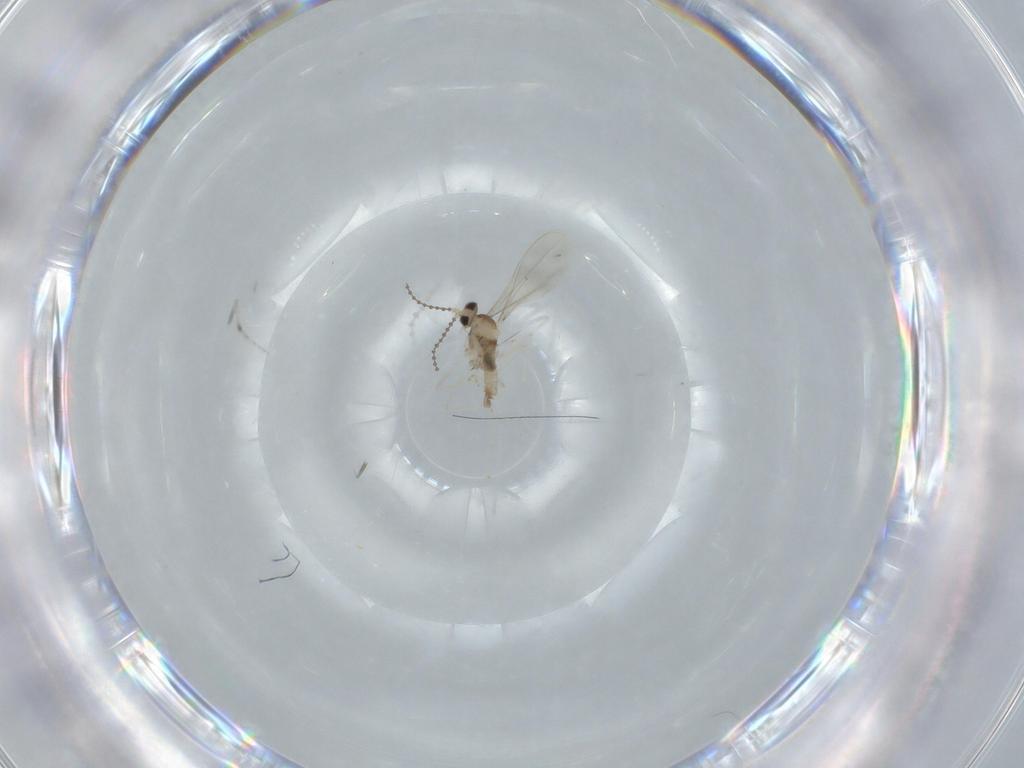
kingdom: Animalia
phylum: Arthropoda
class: Insecta
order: Diptera
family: Cecidomyiidae
